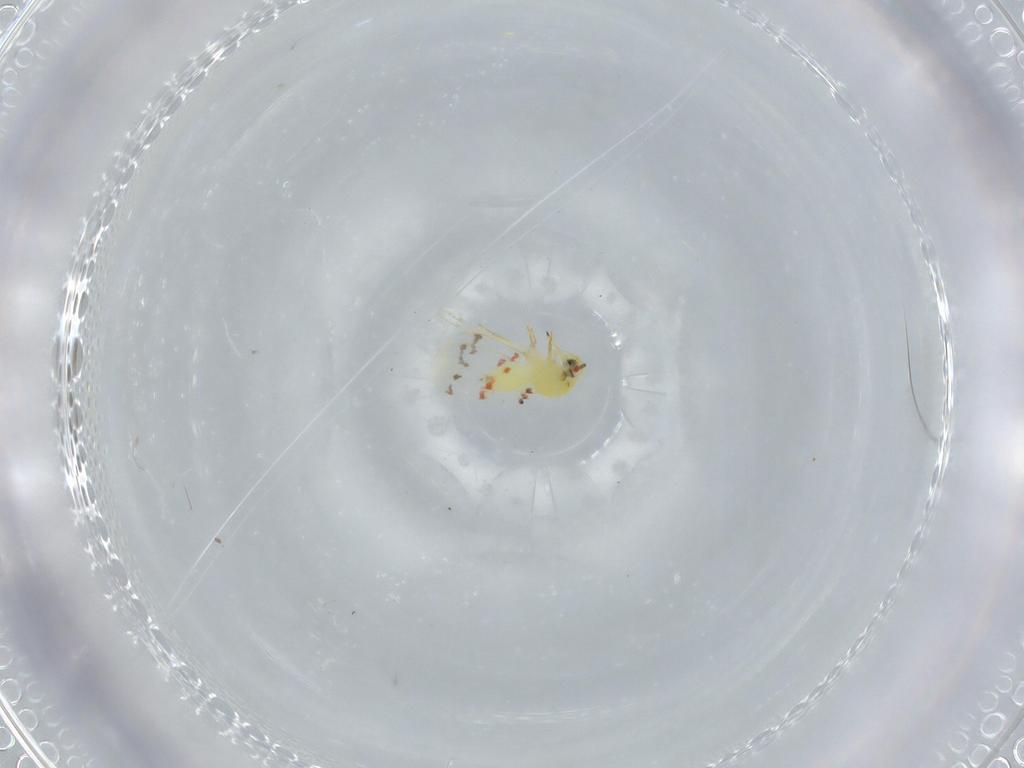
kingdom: Animalia
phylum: Arthropoda
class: Insecta
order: Hemiptera
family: Aleyrodidae
